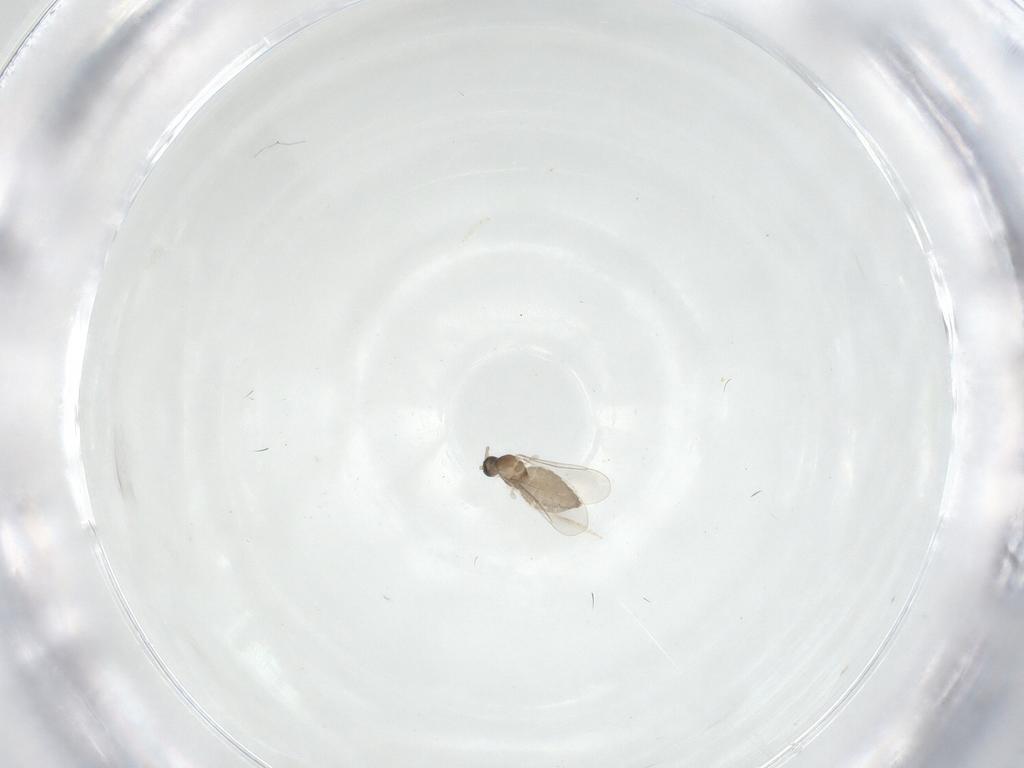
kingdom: Animalia
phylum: Arthropoda
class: Insecta
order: Diptera
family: Cecidomyiidae
